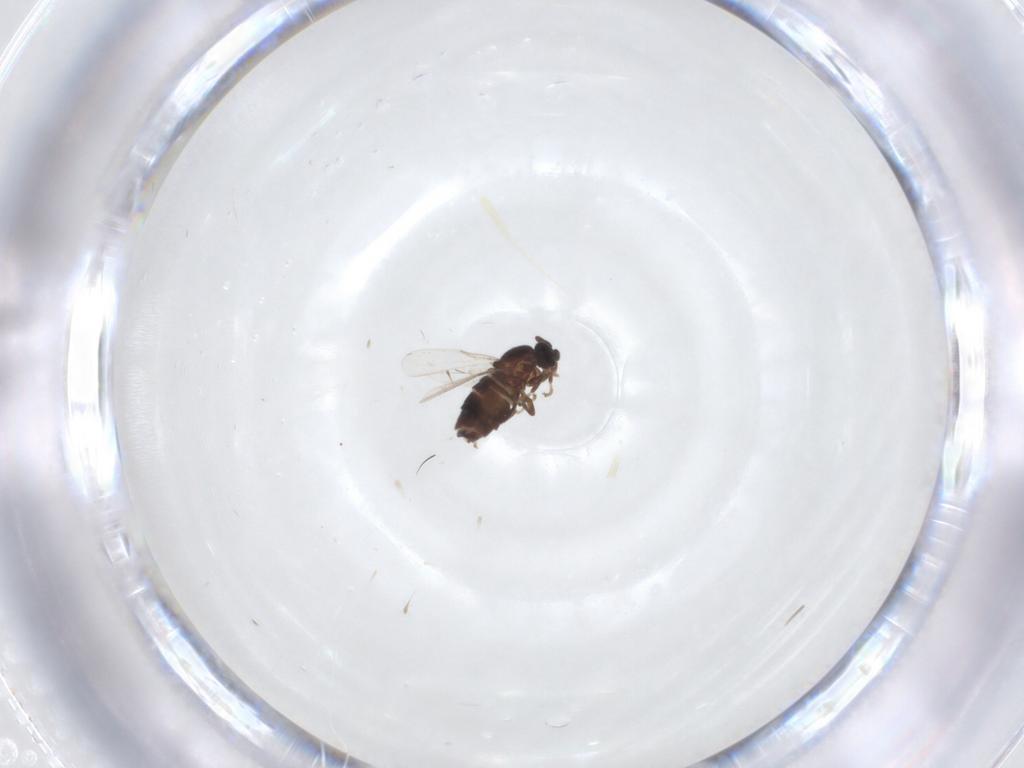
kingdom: Animalia
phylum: Arthropoda
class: Insecta
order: Diptera
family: Scatopsidae
